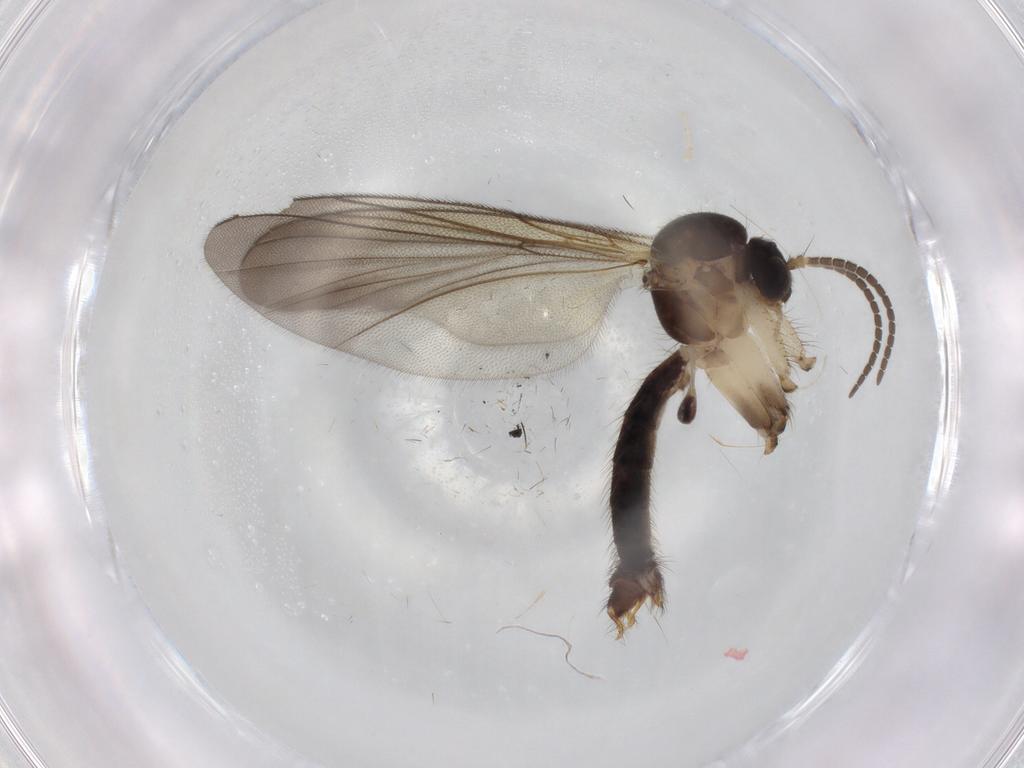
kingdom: Animalia
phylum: Arthropoda
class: Insecta
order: Diptera
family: Mycetophilidae
